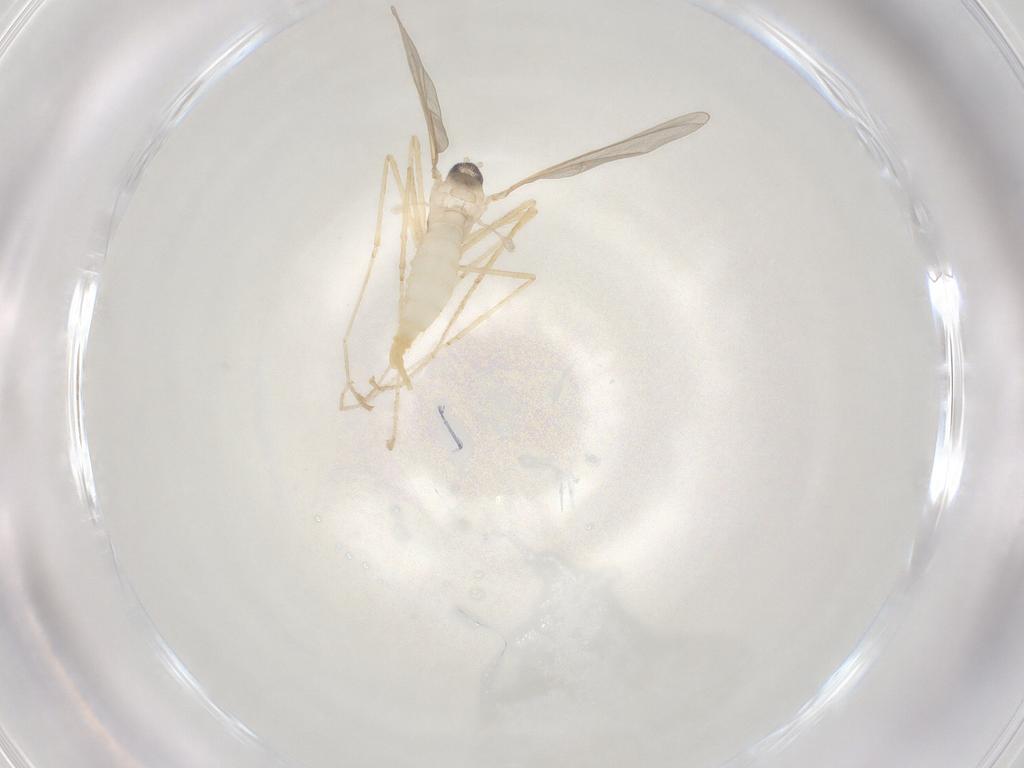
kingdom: Animalia
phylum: Arthropoda
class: Insecta
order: Diptera
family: Cecidomyiidae
